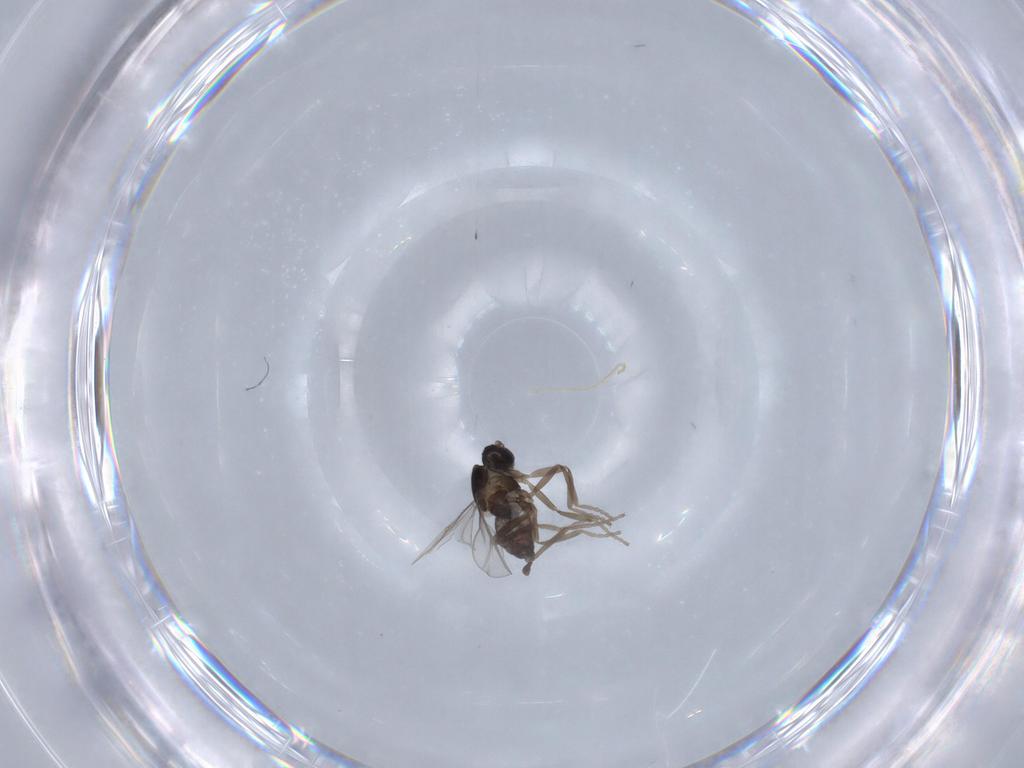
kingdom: Animalia
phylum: Arthropoda
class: Insecta
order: Diptera
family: Cecidomyiidae
